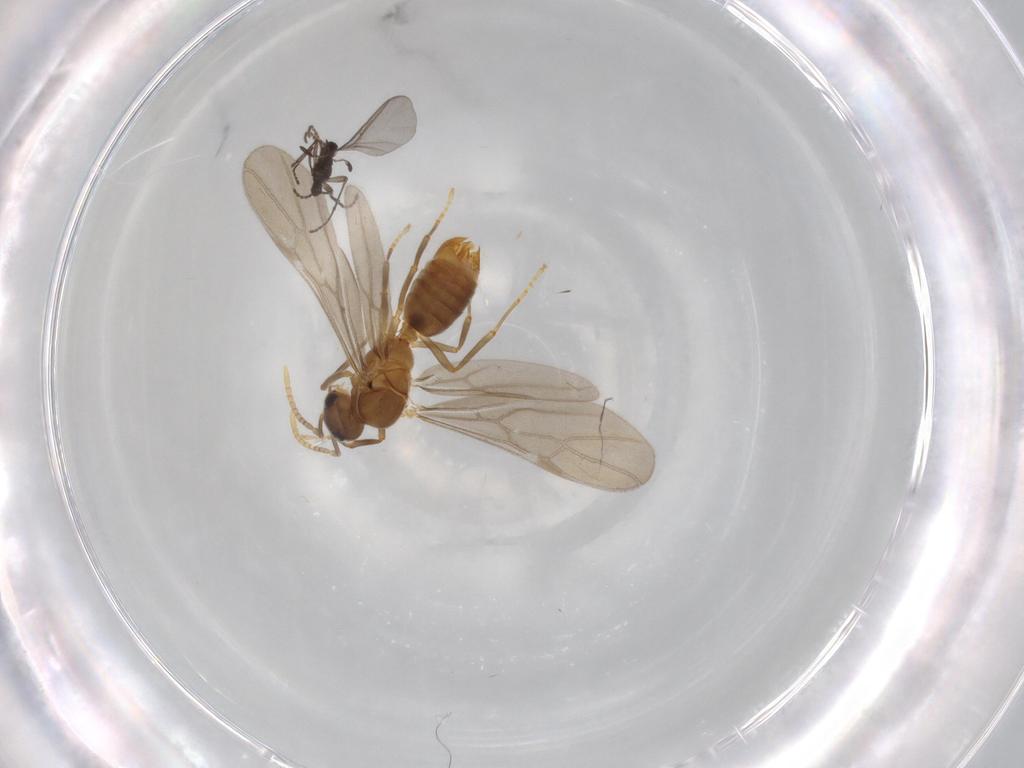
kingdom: Animalia
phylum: Arthropoda
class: Insecta
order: Hymenoptera
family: Formicidae
